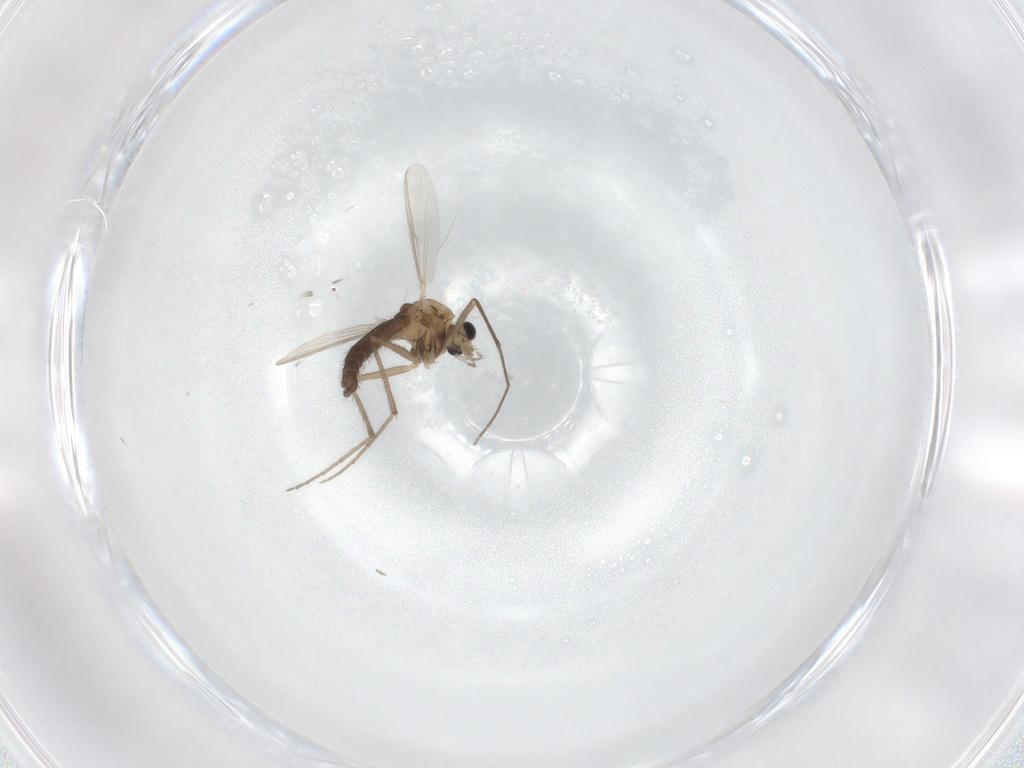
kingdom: Animalia
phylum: Arthropoda
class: Insecta
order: Diptera
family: Chironomidae
